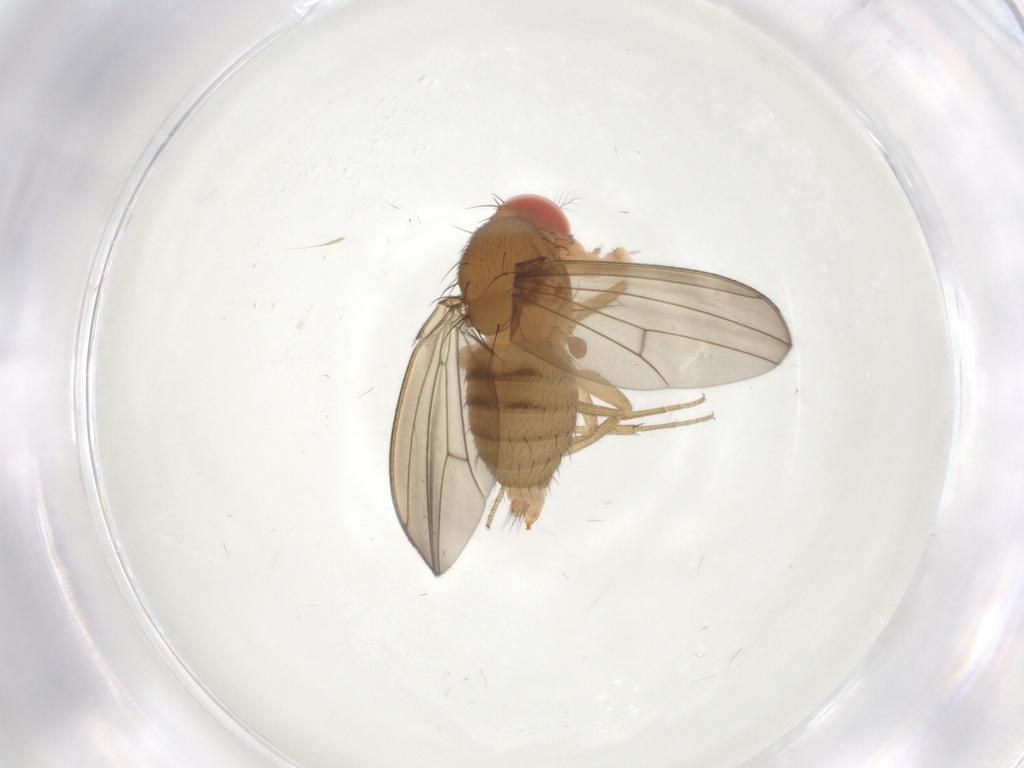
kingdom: Animalia
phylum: Arthropoda
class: Insecta
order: Diptera
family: Drosophilidae
